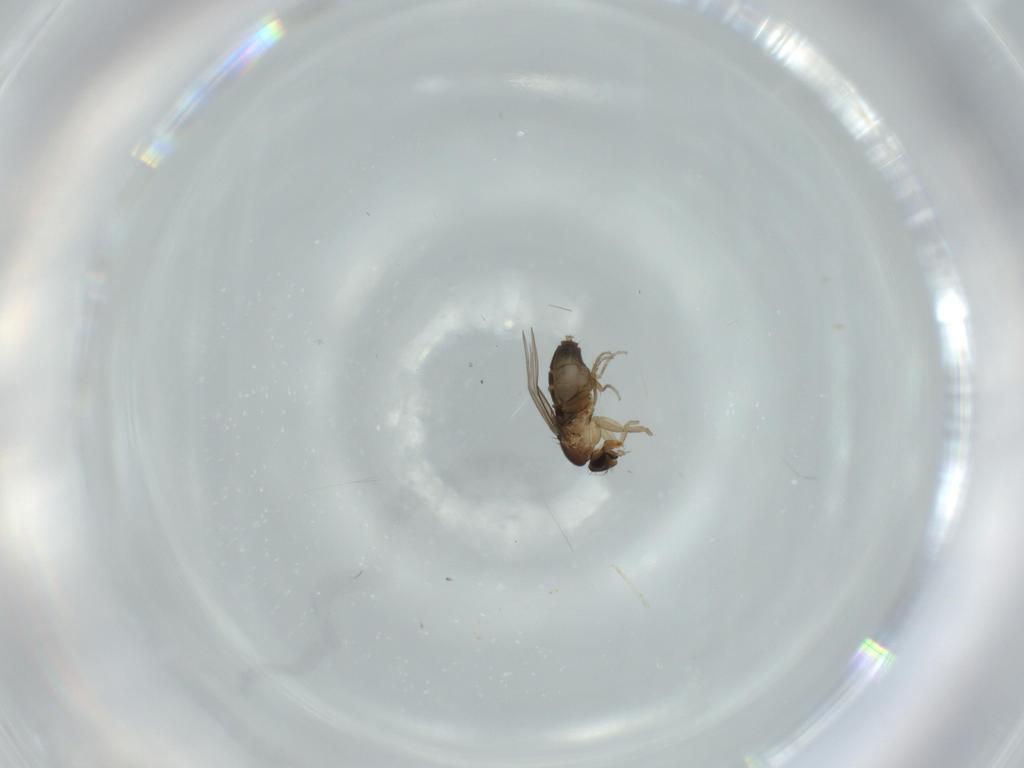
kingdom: Animalia
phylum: Arthropoda
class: Insecta
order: Diptera
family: Phoridae
